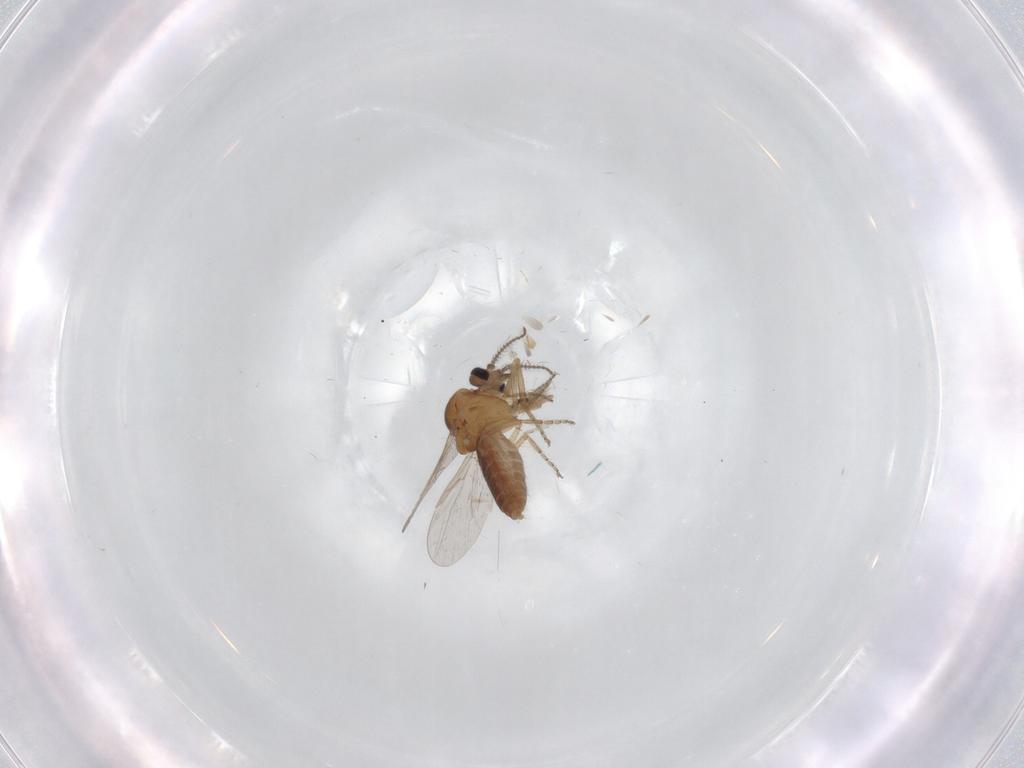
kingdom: Animalia
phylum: Arthropoda
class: Insecta
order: Diptera
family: Ceratopogonidae
